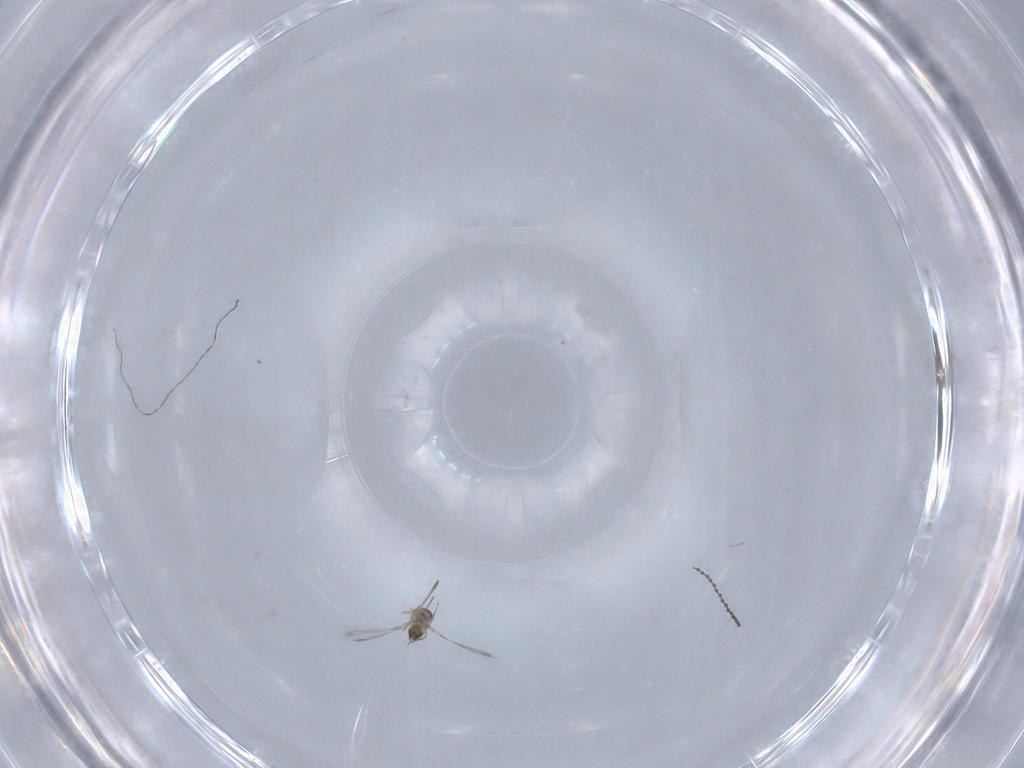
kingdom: Animalia
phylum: Arthropoda
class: Insecta
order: Hymenoptera
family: Mymaridae
